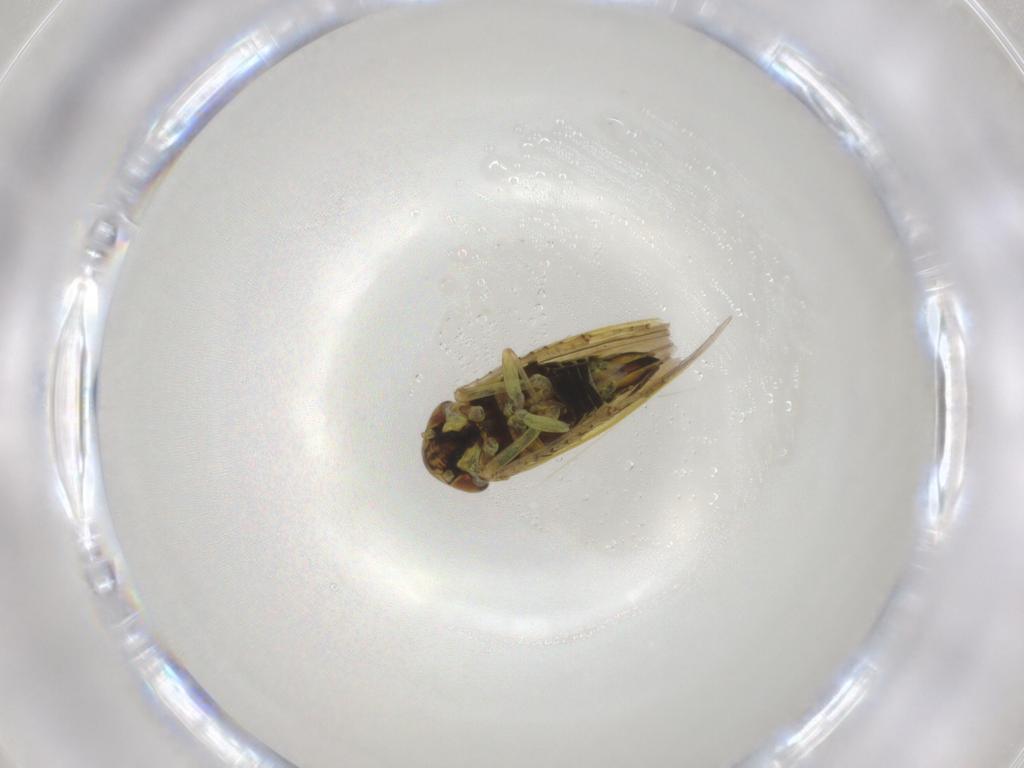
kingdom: Animalia
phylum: Arthropoda
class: Insecta
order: Hemiptera
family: Cicadellidae
